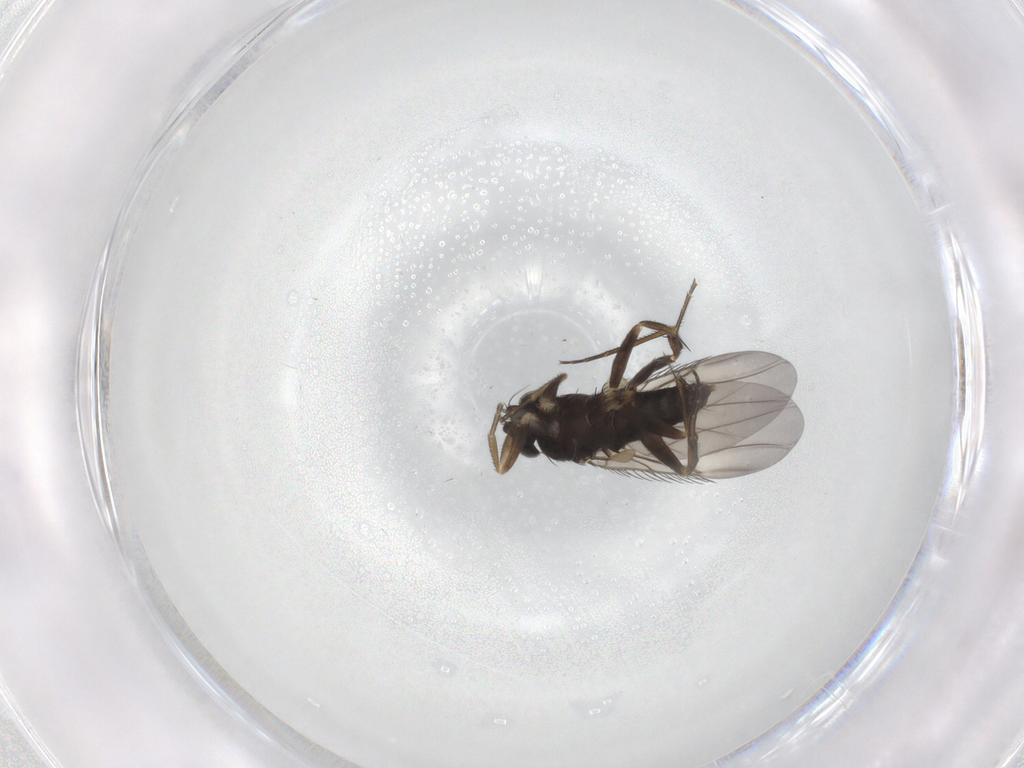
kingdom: Animalia
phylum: Arthropoda
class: Insecta
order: Diptera
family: Phoridae
